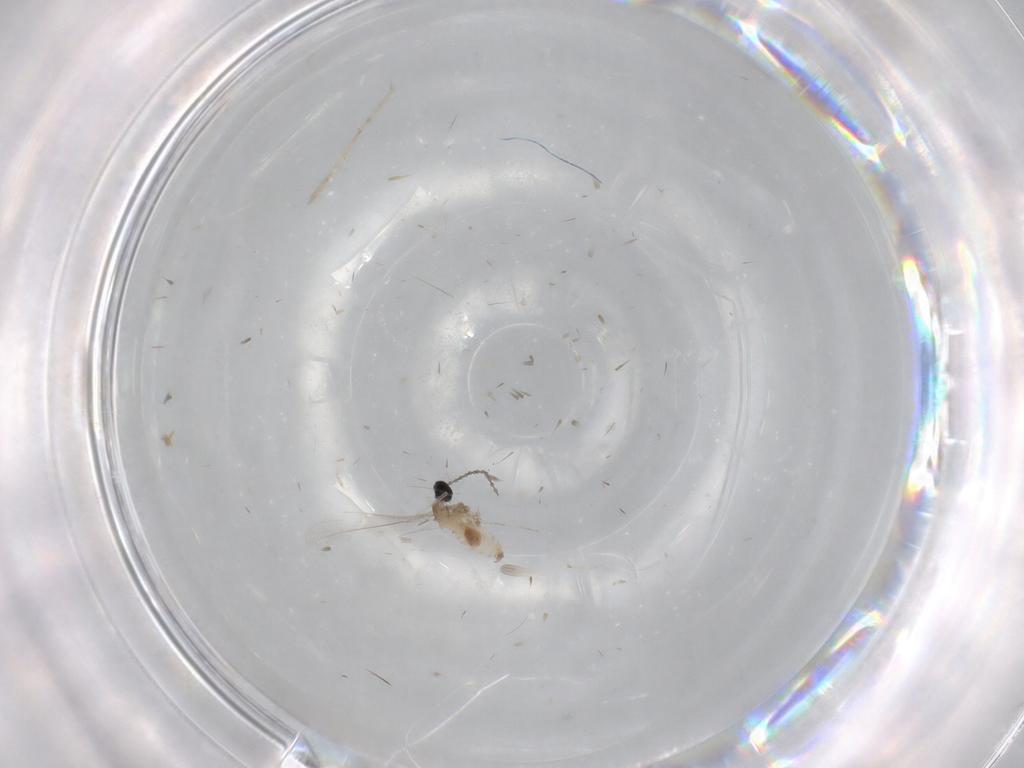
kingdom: Animalia
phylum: Arthropoda
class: Insecta
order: Diptera
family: Cecidomyiidae
